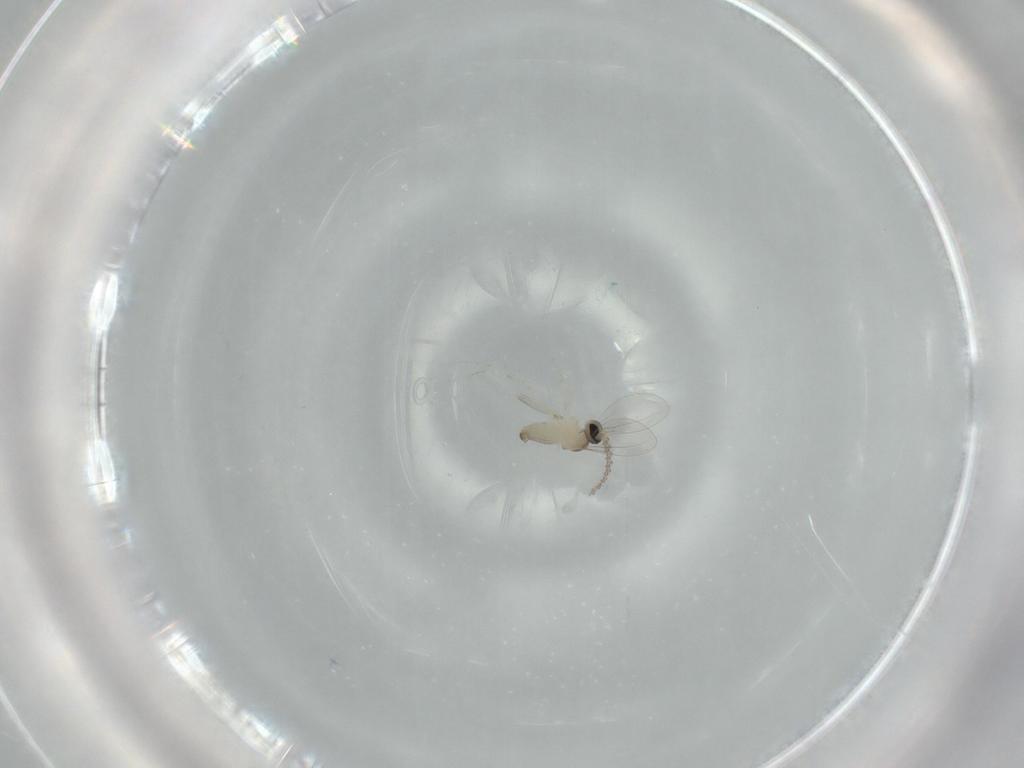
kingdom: Animalia
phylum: Arthropoda
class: Insecta
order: Diptera
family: Cecidomyiidae
